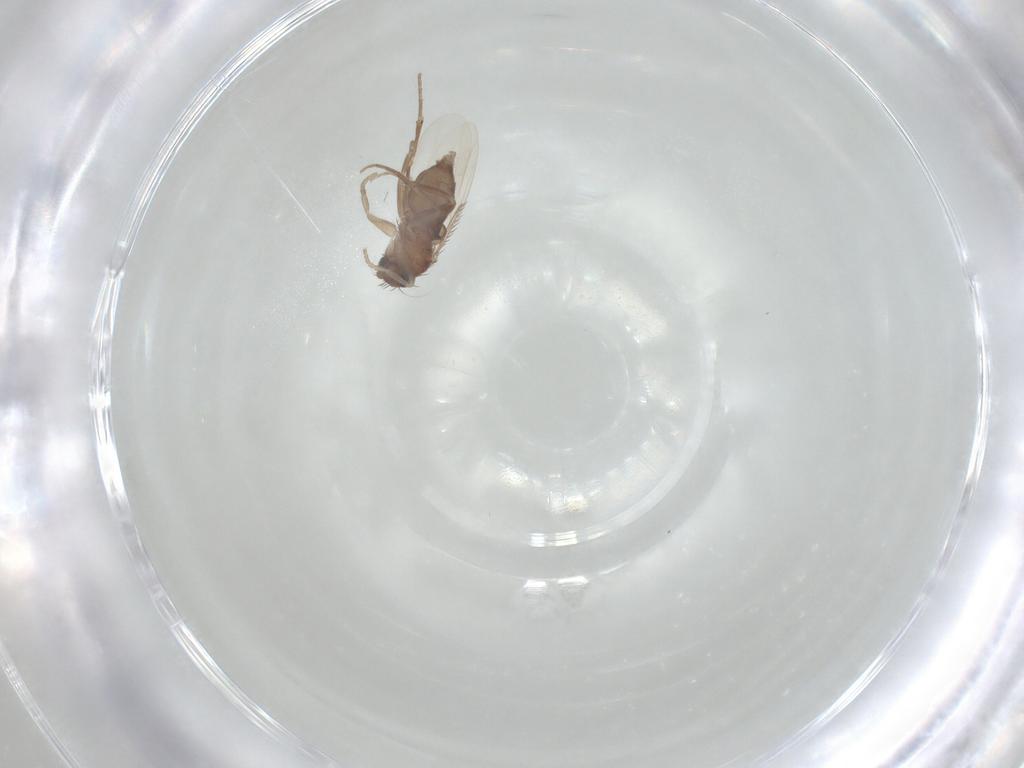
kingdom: Animalia
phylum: Arthropoda
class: Insecta
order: Diptera
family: Phoridae
